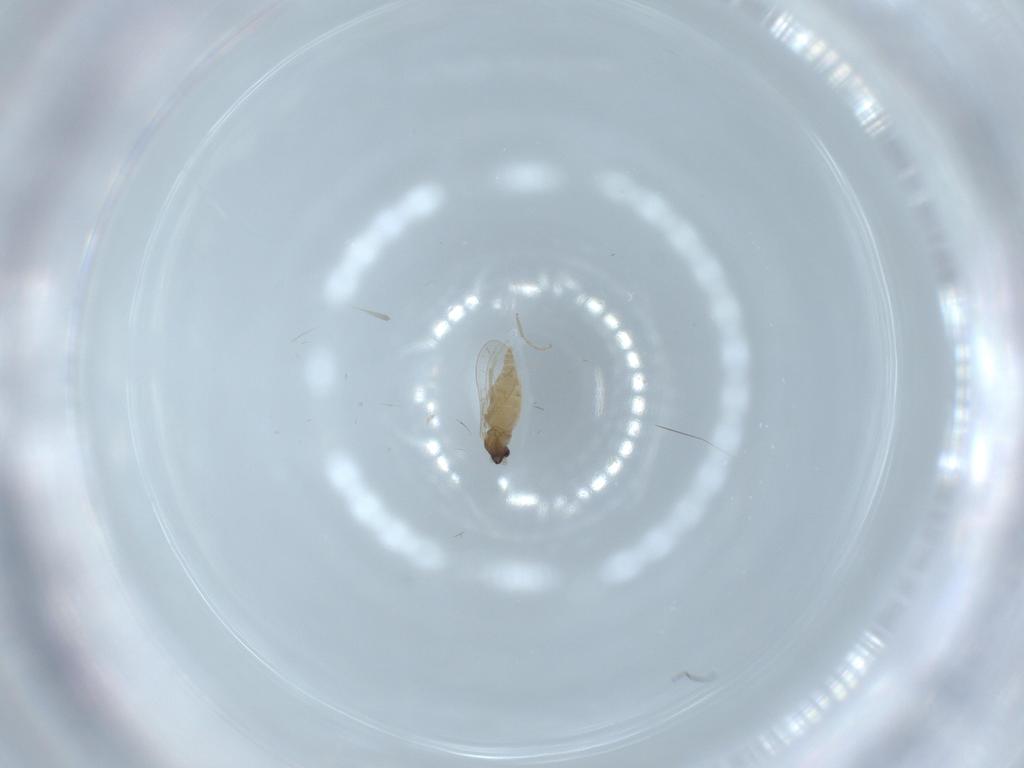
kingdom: Animalia
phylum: Arthropoda
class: Insecta
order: Diptera
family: Cecidomyiidae
